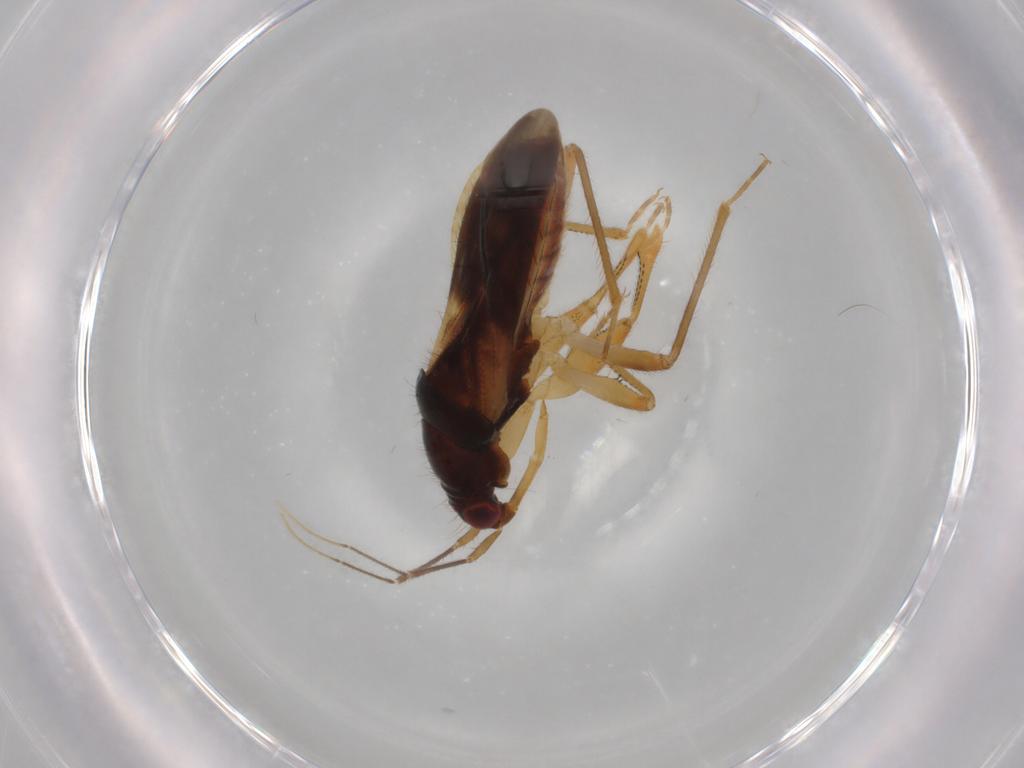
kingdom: Animalia
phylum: Arthropoda
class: Insecta
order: Hemiptera
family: Nabidae
